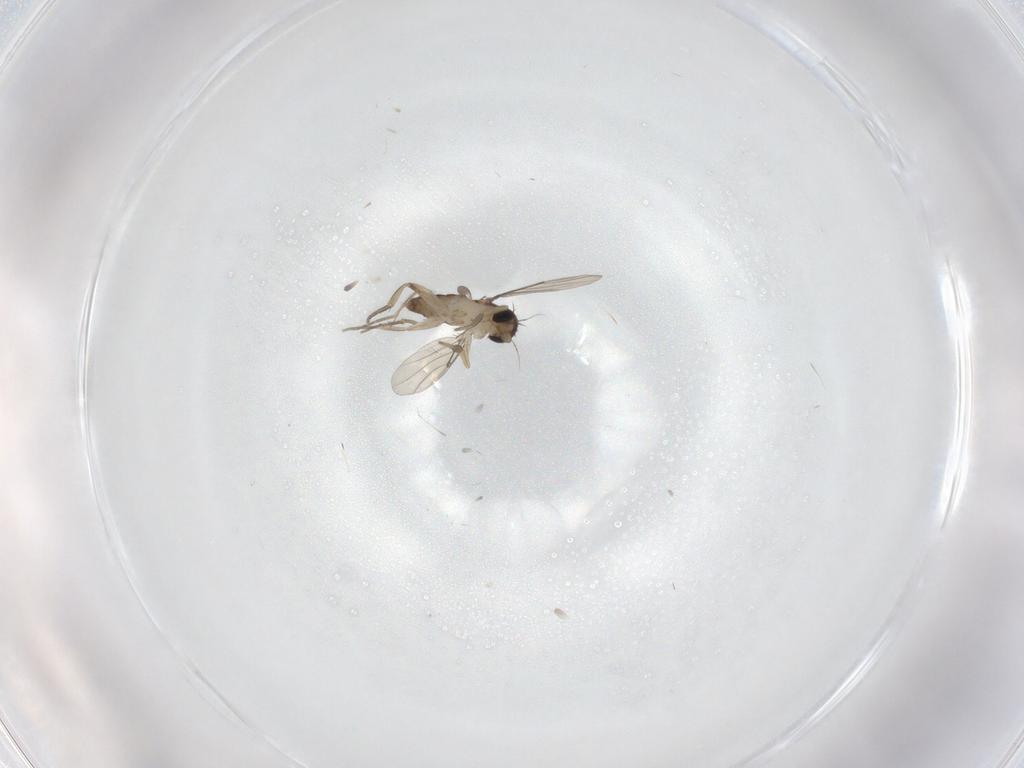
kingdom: Animalia
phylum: Arthropoda
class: Insecta
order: Diptera
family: Phoridae
